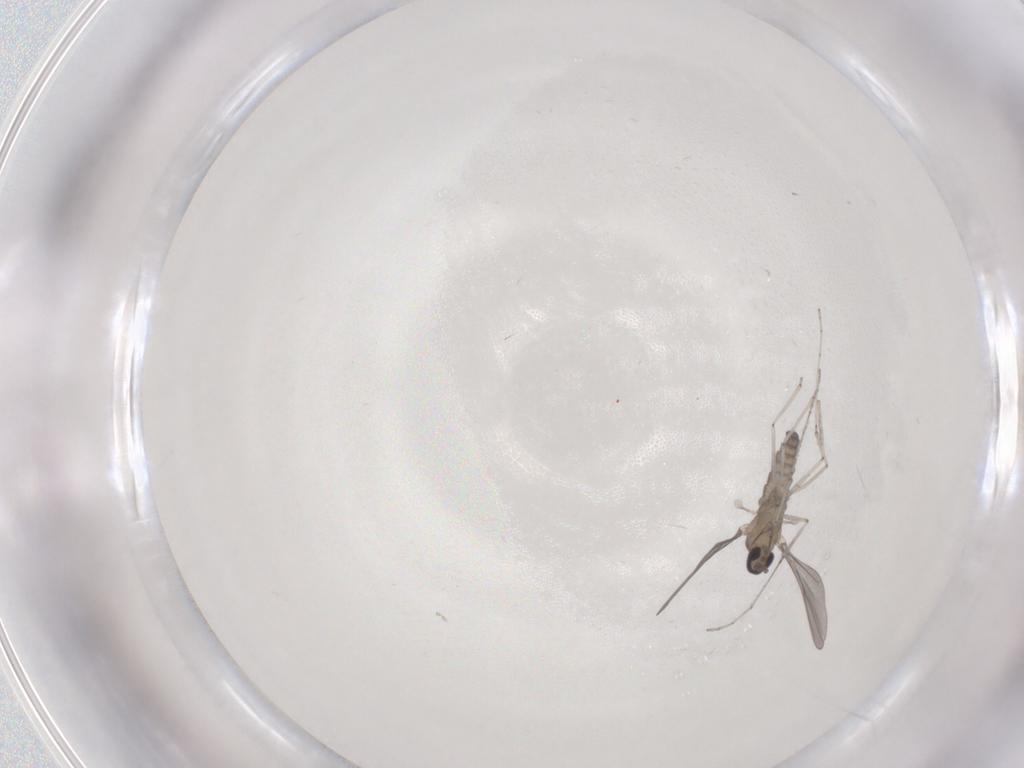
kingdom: Animalia
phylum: Arthropoda
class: Insecta
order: Diptera
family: Cecidomyiidae
